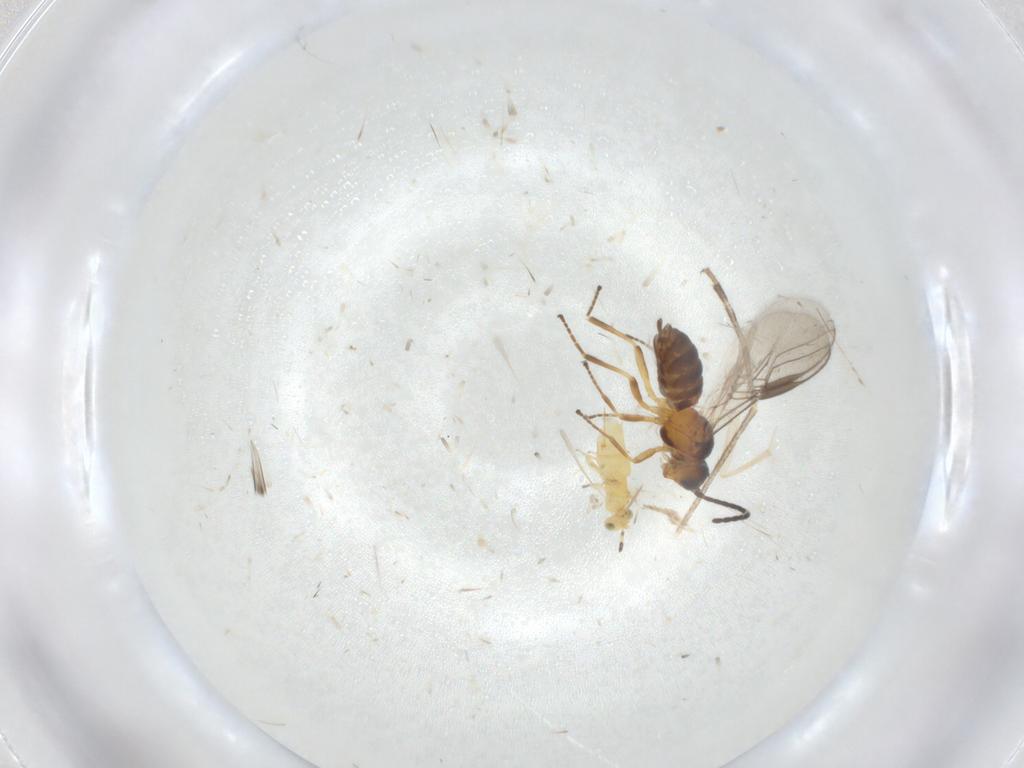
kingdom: Animalia
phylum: Arthropoda
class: Insecta
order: Hymenoptera
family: Braconidae
